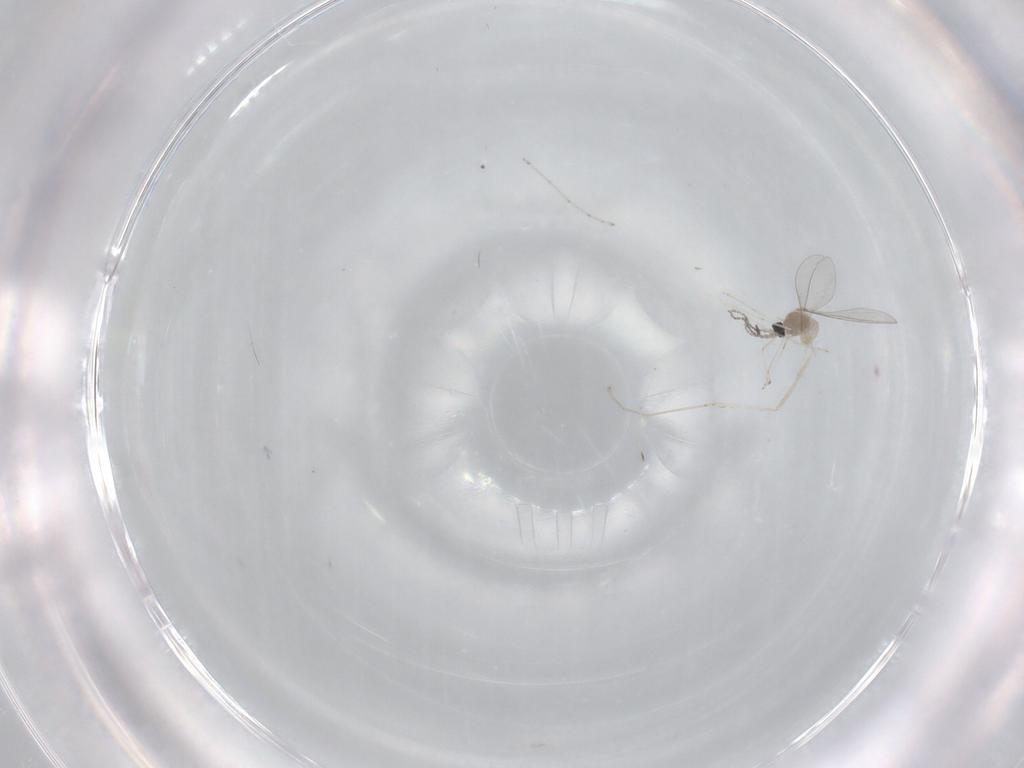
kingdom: Animalia
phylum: Arthropoda
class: Insecta
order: Diptera
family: Cecidomyiidae
